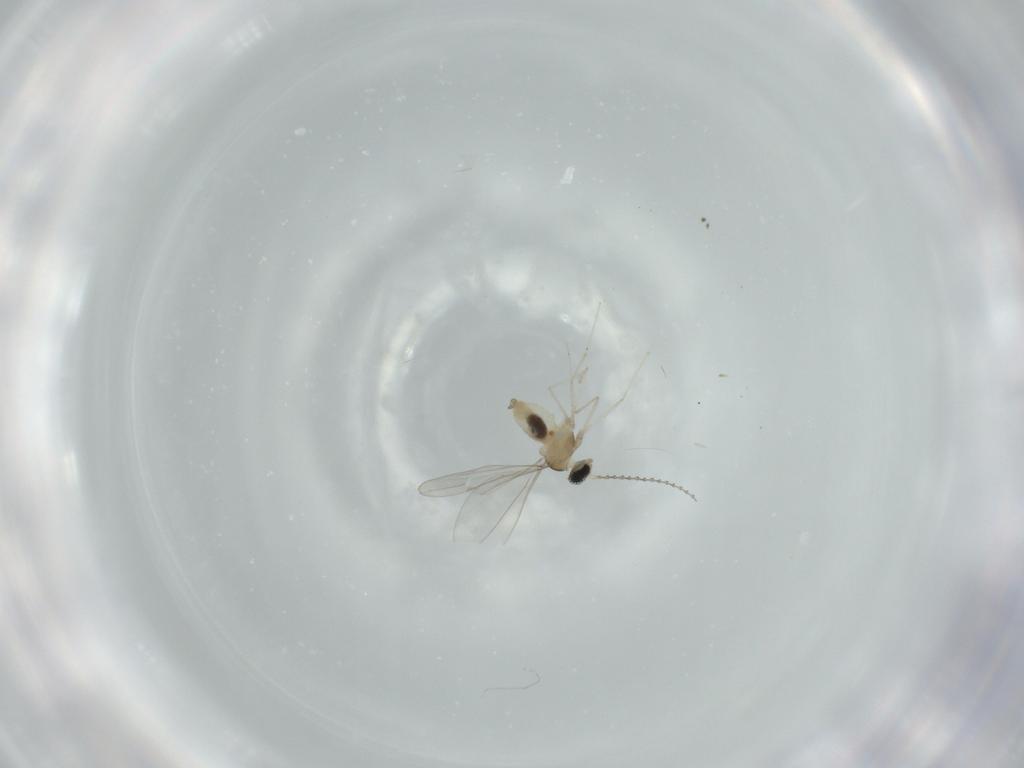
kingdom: Animalia
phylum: Arthropoda
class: Insecta
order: Diptera
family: Cecidomyiidae
